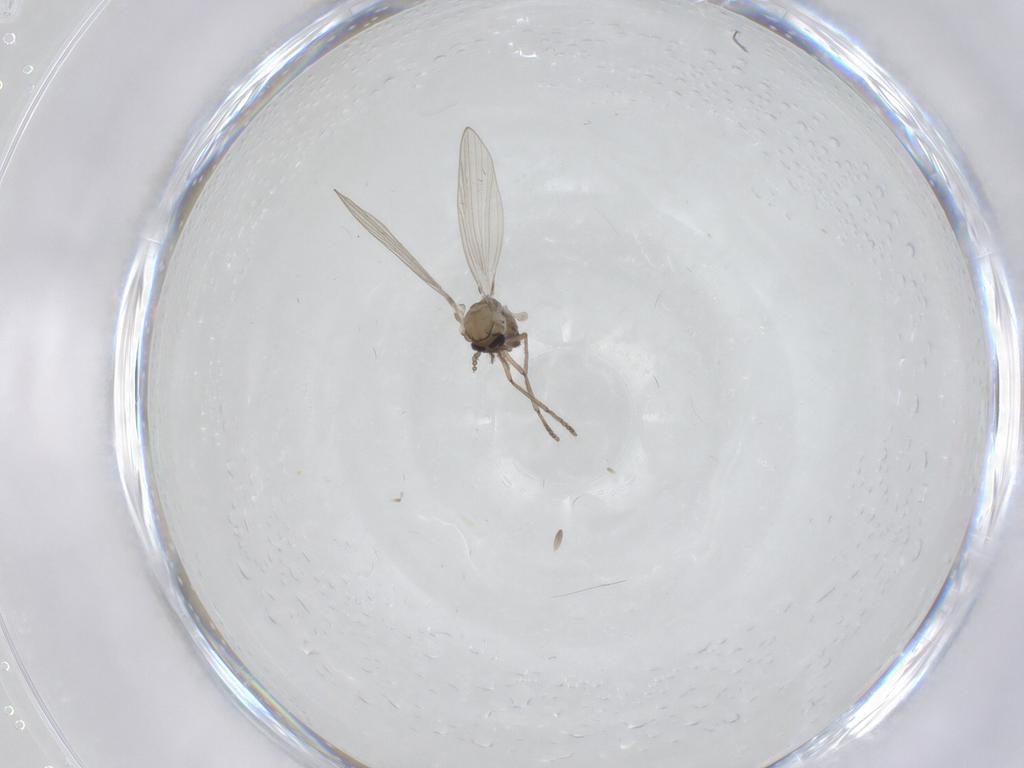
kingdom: Animalia
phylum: Arthropoda
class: Insecta
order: Diptera
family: Psychodidae
